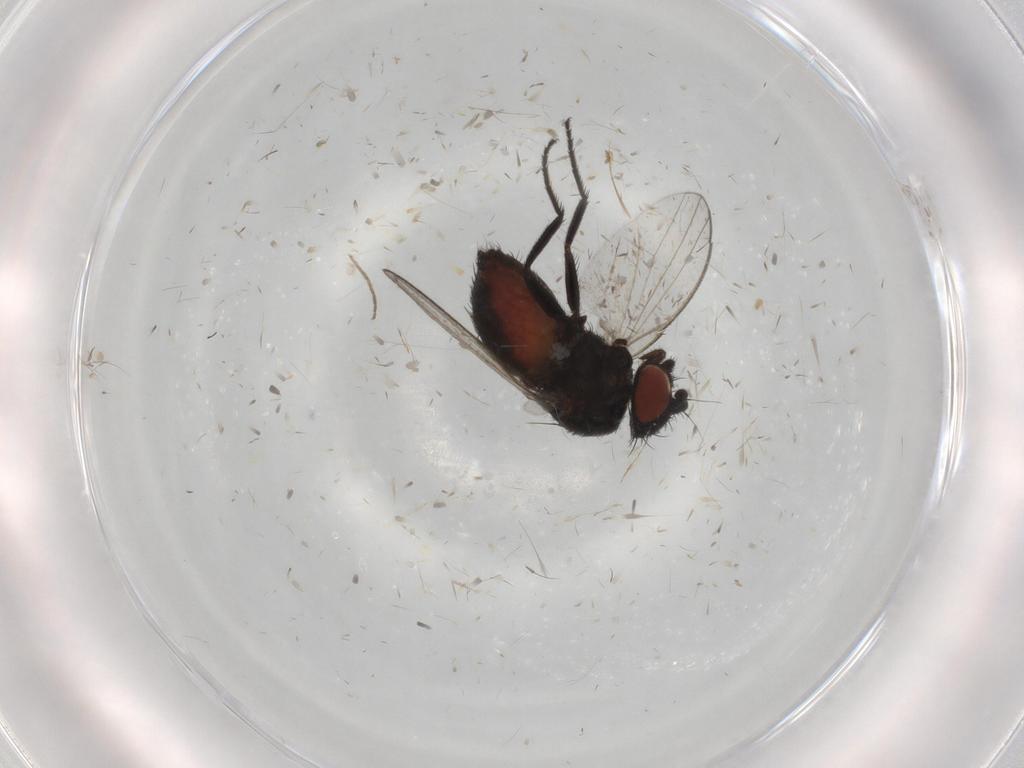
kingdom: Animalia
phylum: Arthropoda
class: Insecta
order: Diptera
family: Milichiidae
